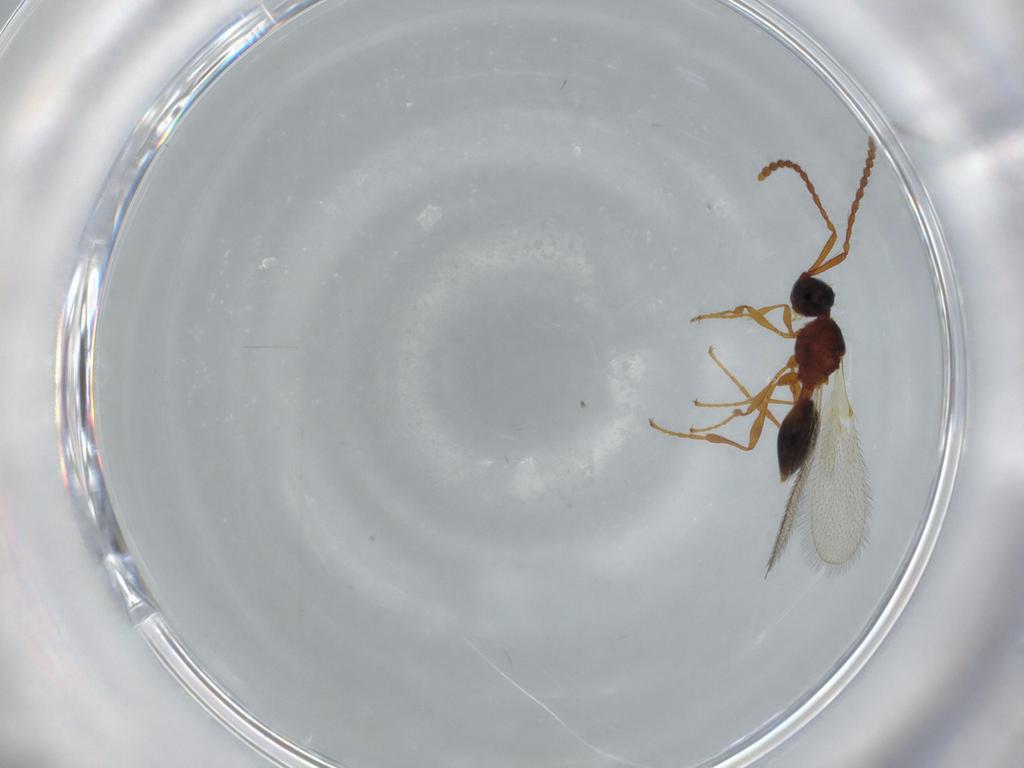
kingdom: Animalia
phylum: Arthropoda
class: Insecta
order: Hymenoptera
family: Diapriidae
